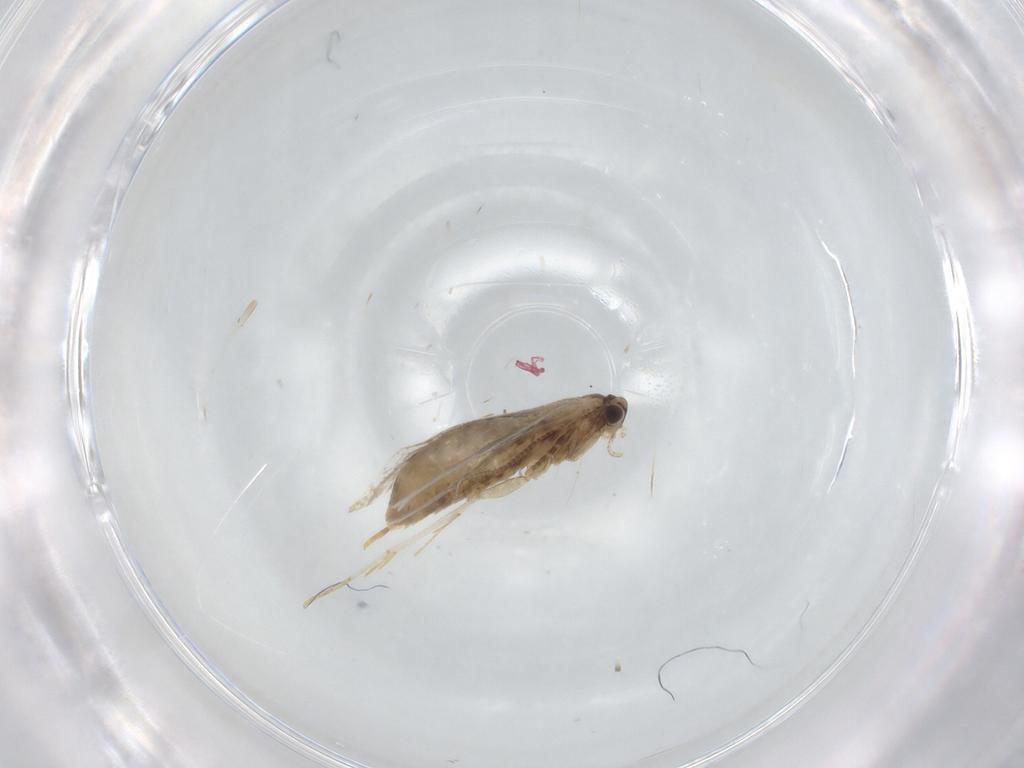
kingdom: Animalia
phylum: Arthropoda
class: Insecta
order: Lepidoptera
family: Tineidae
